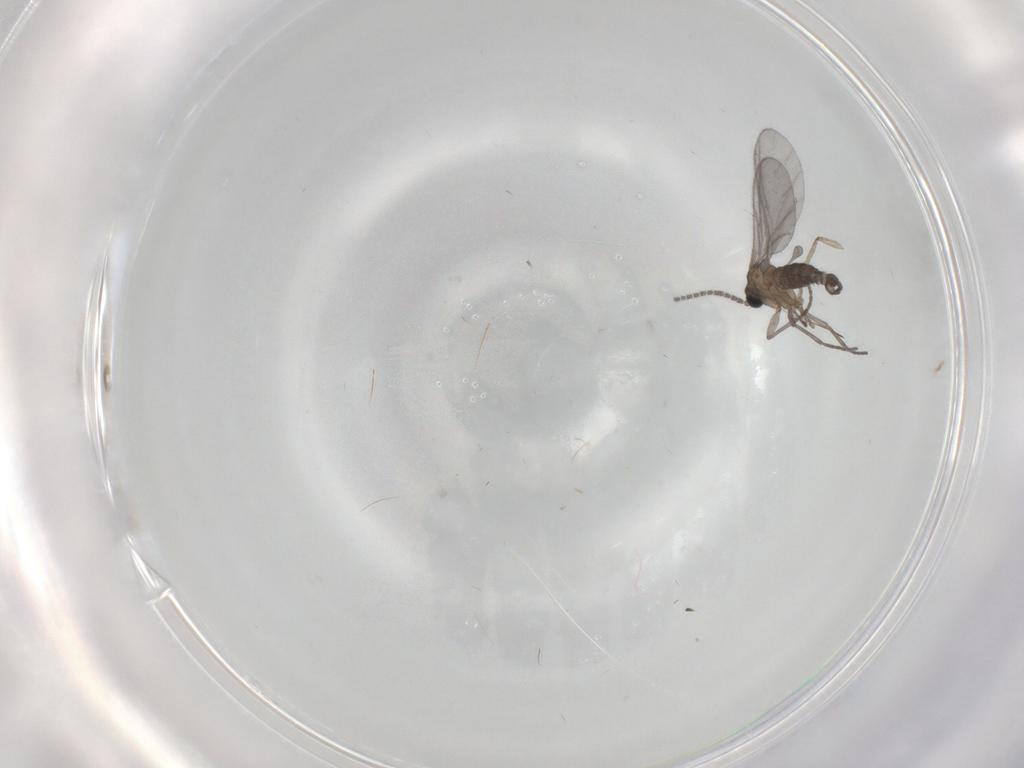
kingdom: Animalia
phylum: Arthropoda
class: Insecta
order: Diptera
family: Sciaridae
